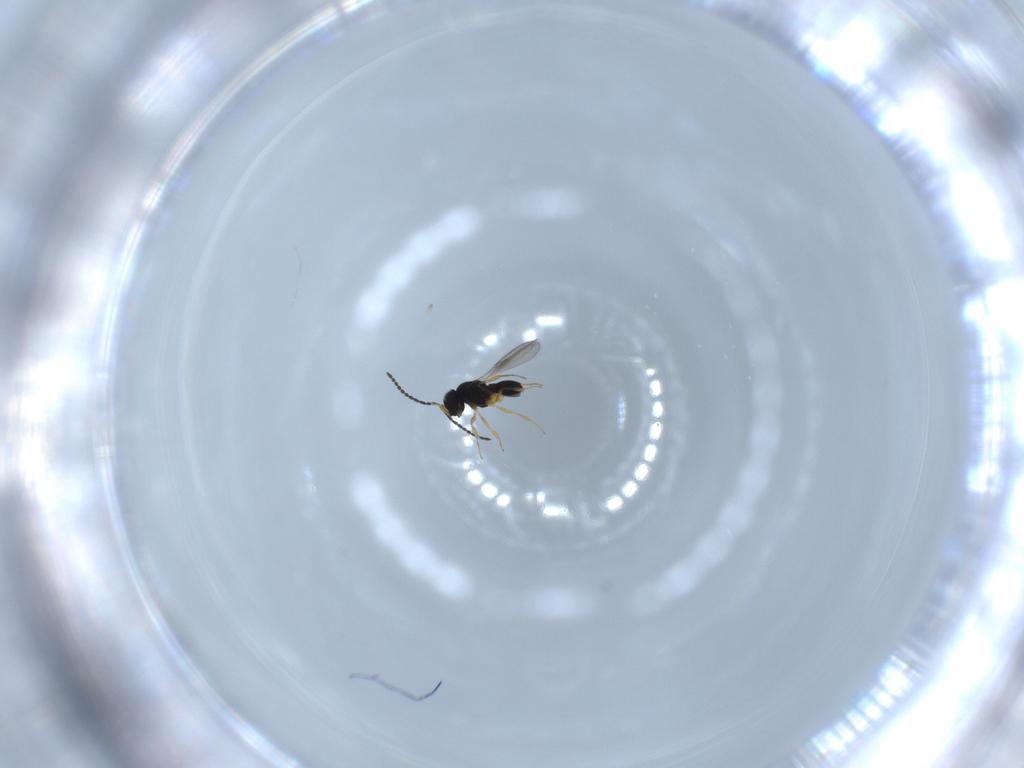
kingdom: Animalia
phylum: Arthropoda
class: Insecta
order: Hymenoptera
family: Scelionidae
